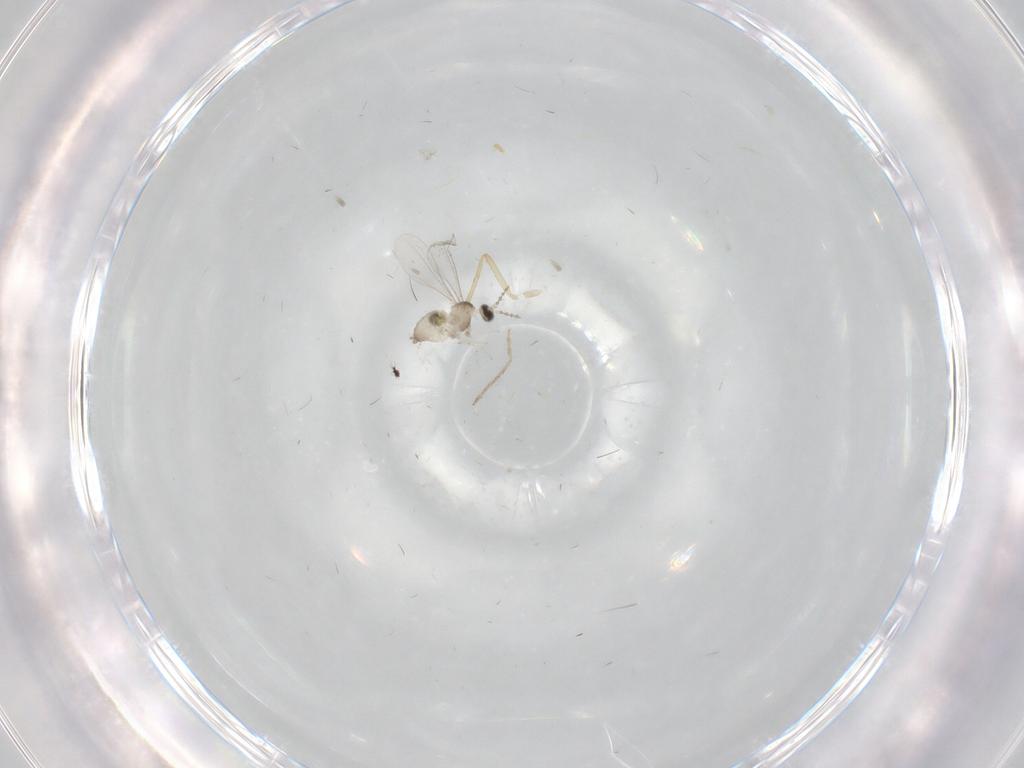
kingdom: Animalia
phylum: Arthropoda
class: Insecta
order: Diptera
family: Cecidomyiidae
